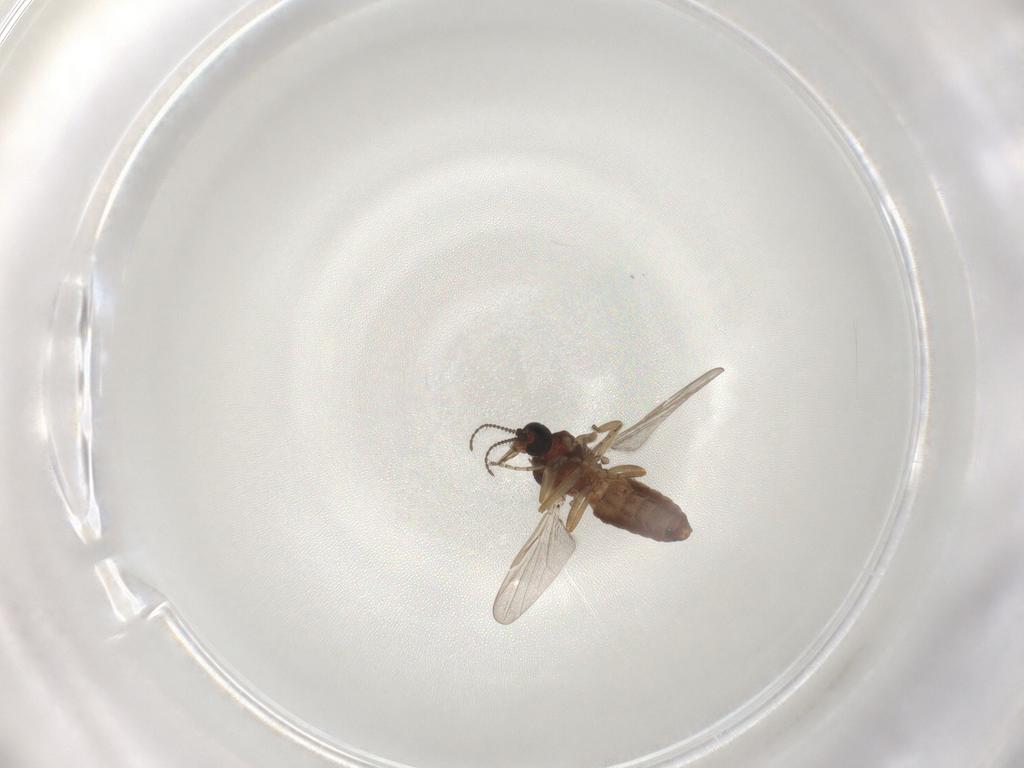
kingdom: Animalia
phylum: Arthropoda
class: Insecta
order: Diptera
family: Ceratopogonidae
